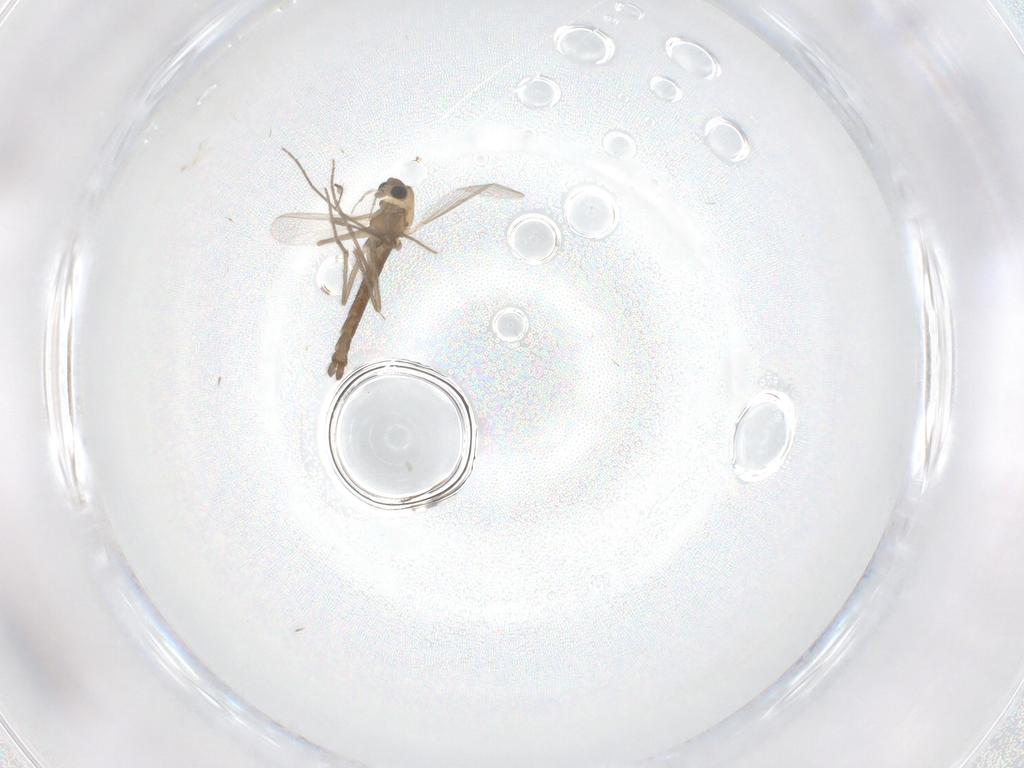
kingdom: Animalia
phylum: Arthropoda
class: Insecta
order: Diptera
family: Chironomidae
